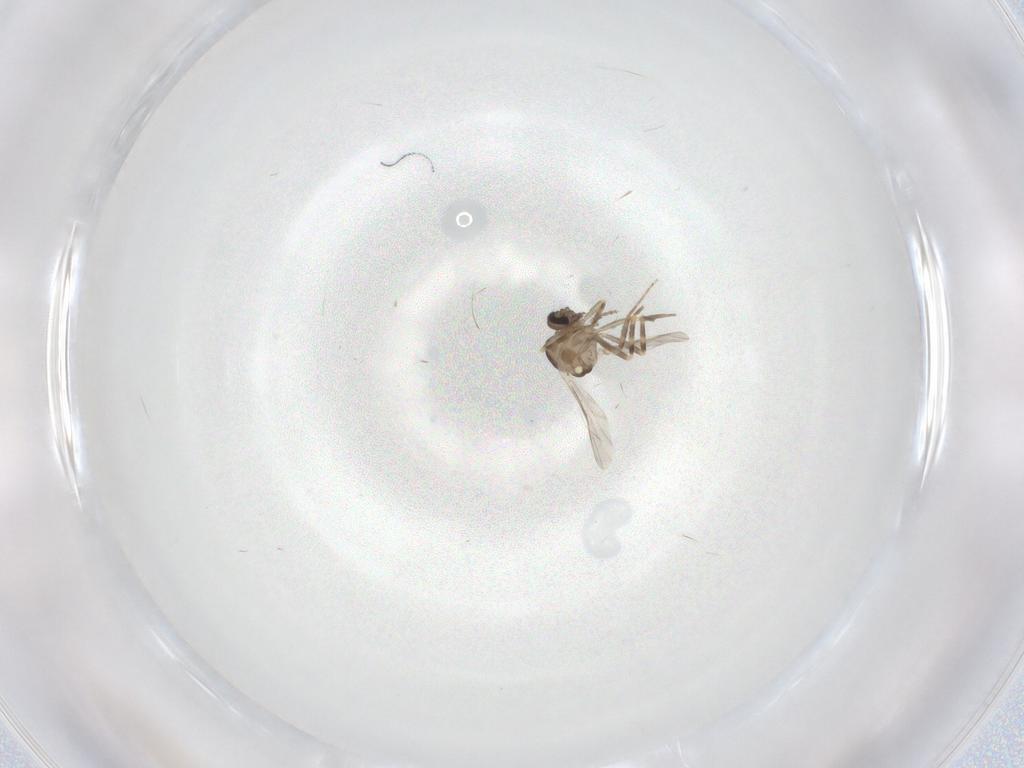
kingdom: Animalia
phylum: Arthropoda
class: Insecta
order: Diptera
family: Ceratopogonidae
